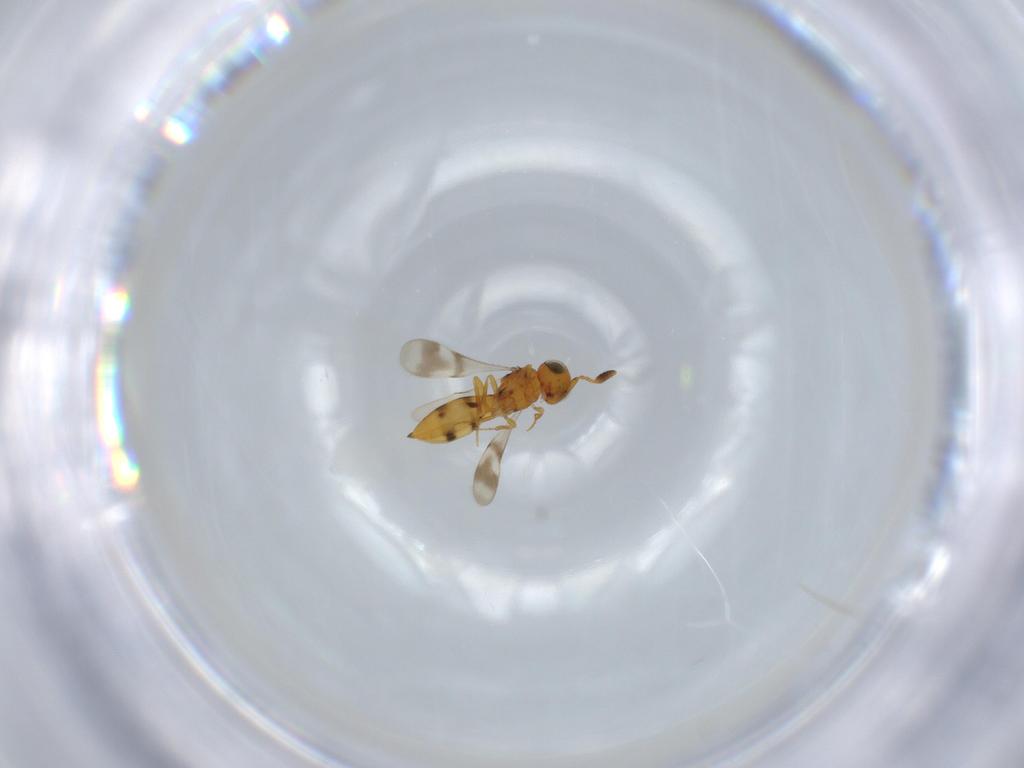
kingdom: Animalia
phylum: Arthropoda
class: Insecta
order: Hymenoptera
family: Scelionidae
